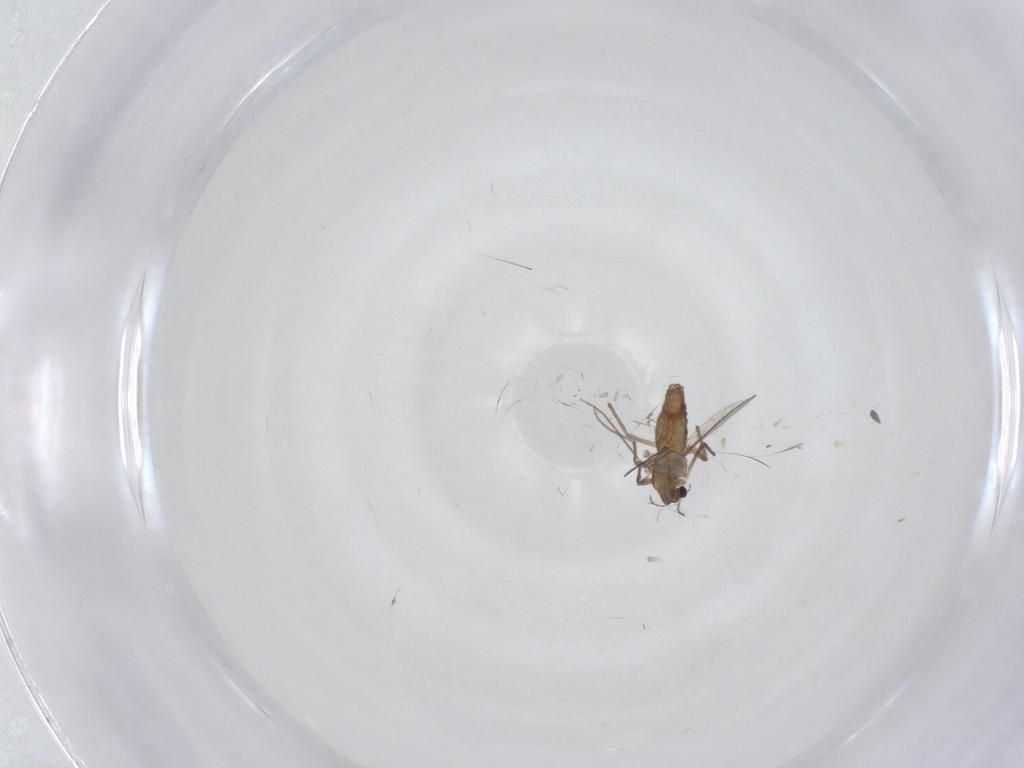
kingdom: Animalia
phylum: Arthropoda
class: Insecta
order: Diptera
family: Chironomidae
